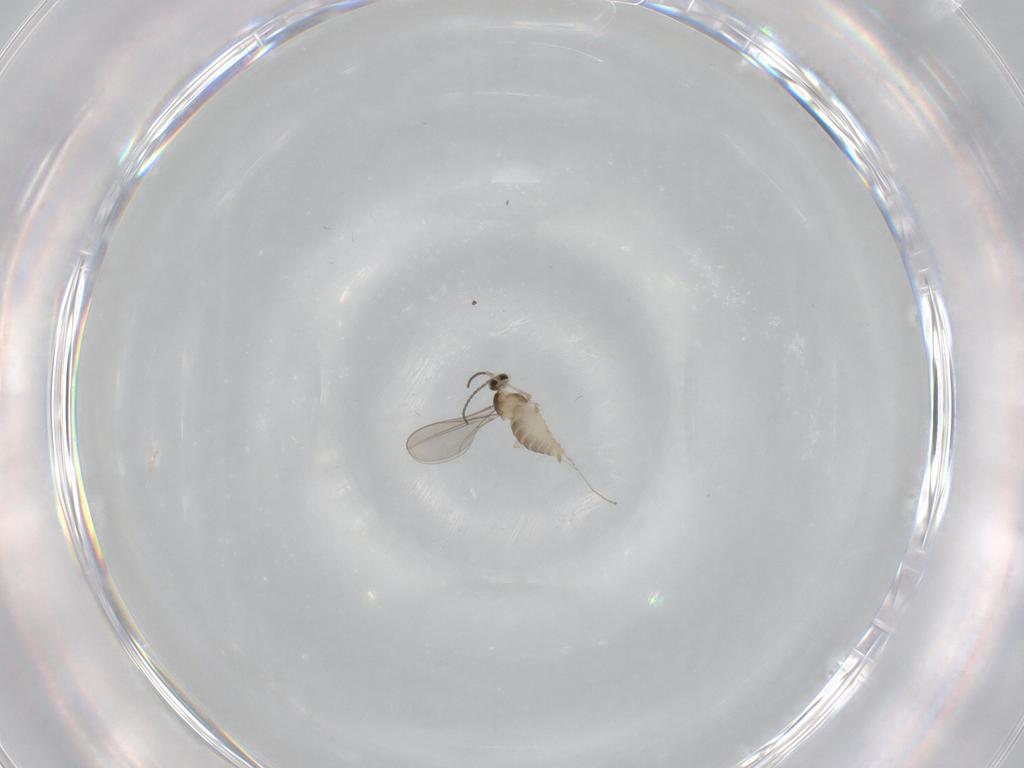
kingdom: Animalia
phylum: Arthropoda
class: Insecta
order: Diptera
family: Cecidomyiidae
